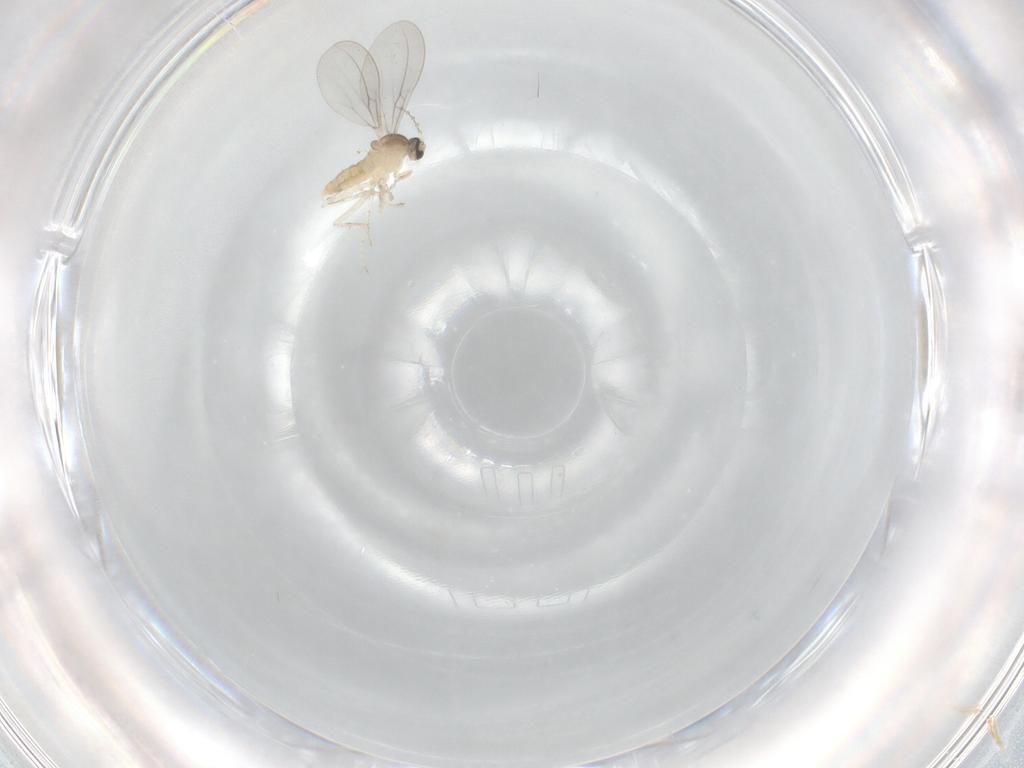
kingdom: Animalia
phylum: Arthropoda
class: Insecta
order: Diptera
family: Cecidomyiidae
